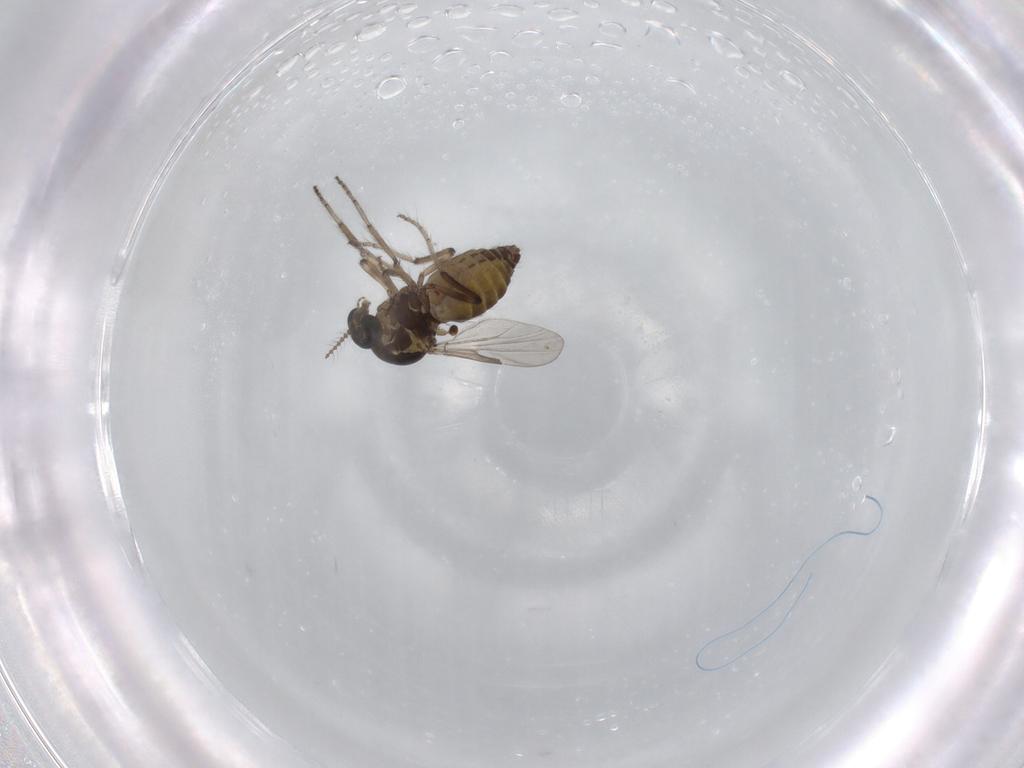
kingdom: Animalia
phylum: Arthropoda
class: Insecta
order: Diptera
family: Ceratopogonidae
